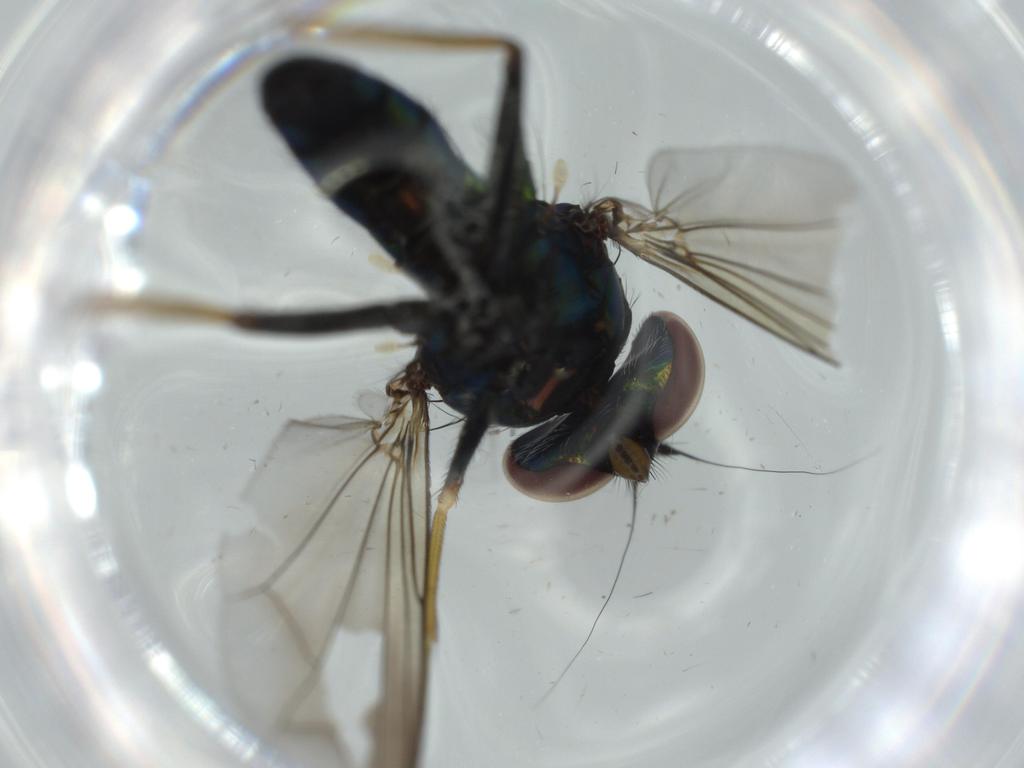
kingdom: Animalia
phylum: Arthropoda
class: Insecta
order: Diptera
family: Dolichopodidae
